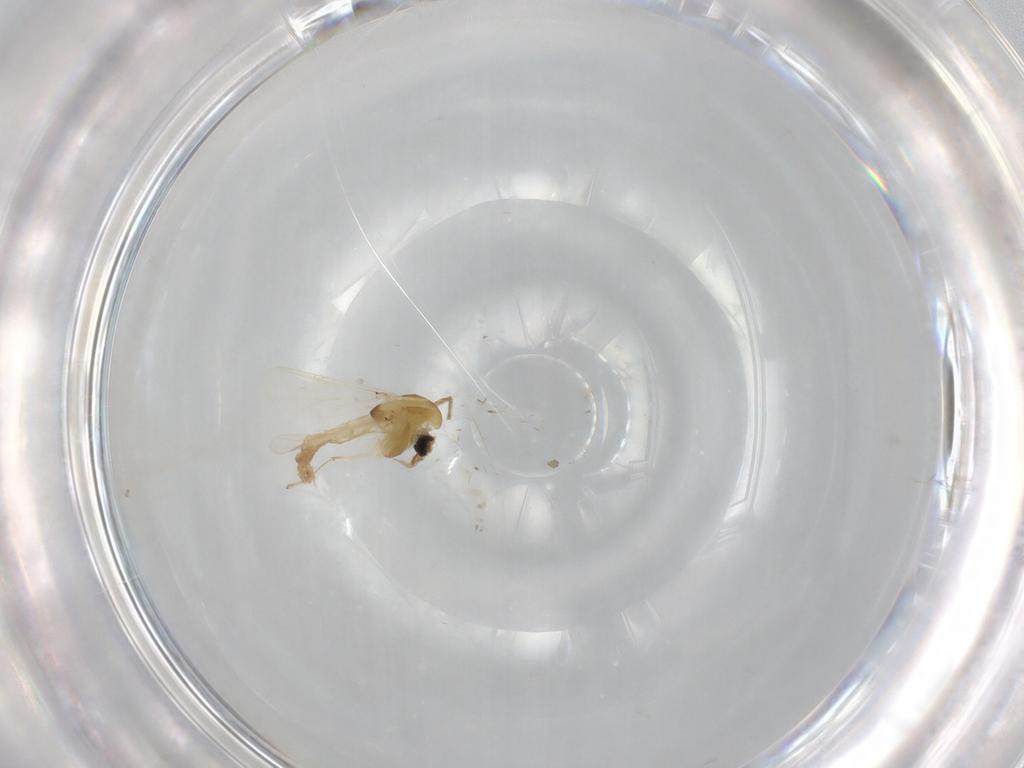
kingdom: Animalia
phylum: Arthropoda
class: Insecta
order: Diptera
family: Chironomidae
